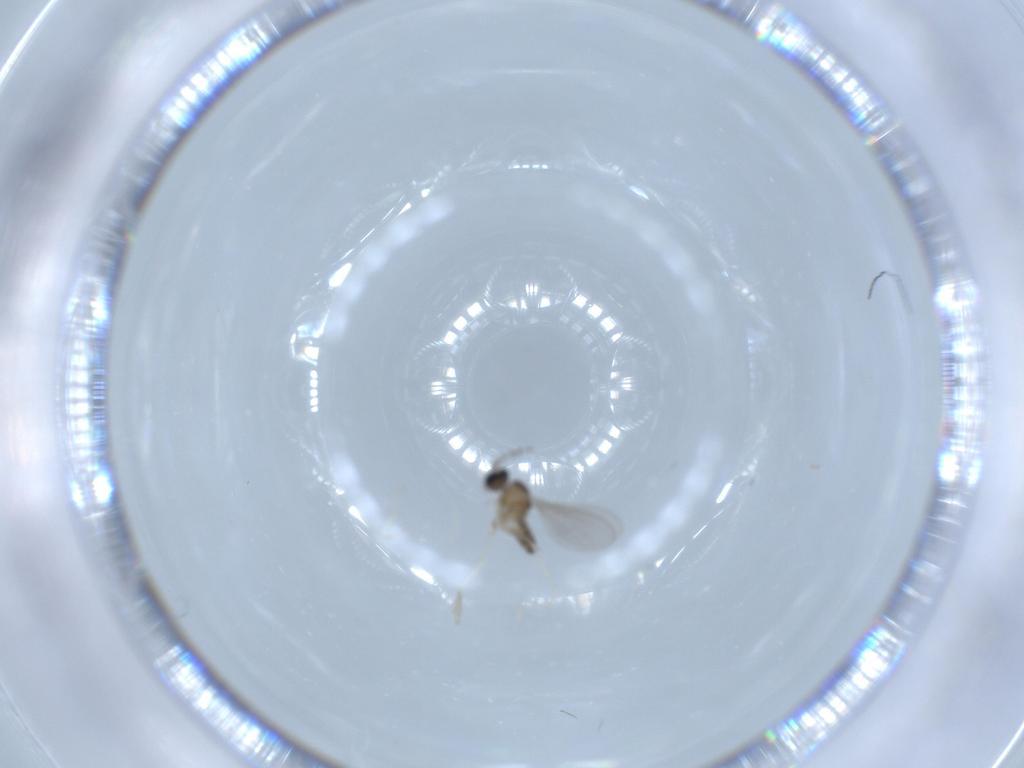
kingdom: Animalia
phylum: Arthropoda
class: Insecta
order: Diptera
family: Cecidomyiidae
